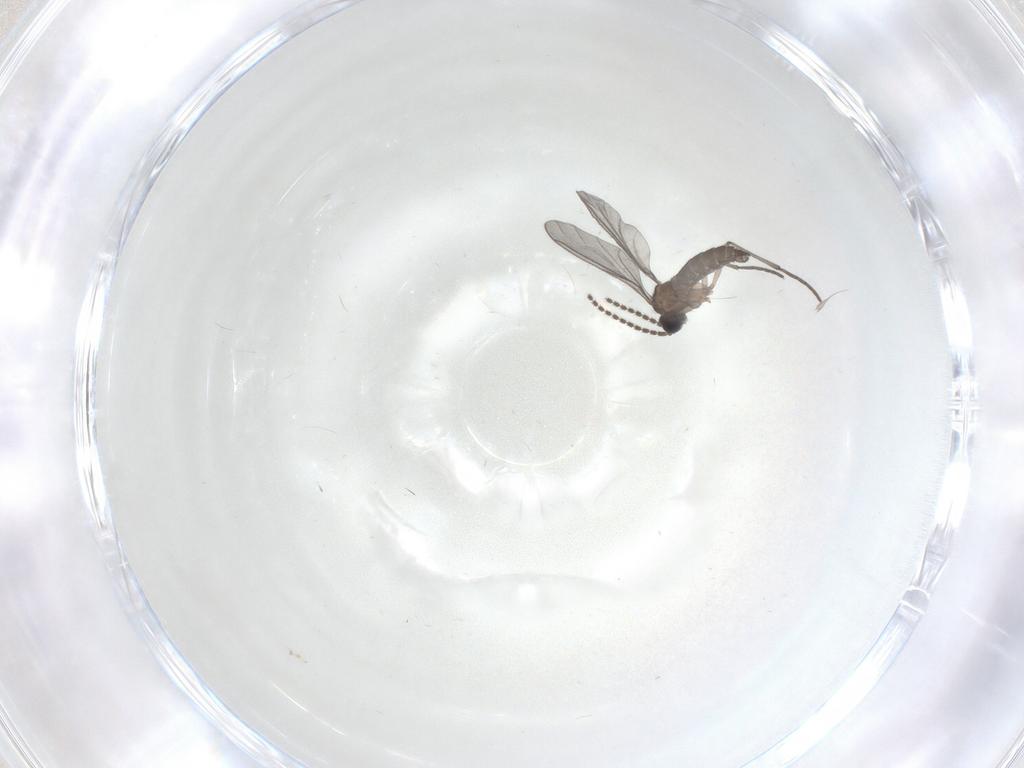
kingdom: Animalia
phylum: Arthropoda
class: Insecta
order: Diptera
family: Sciaridae
